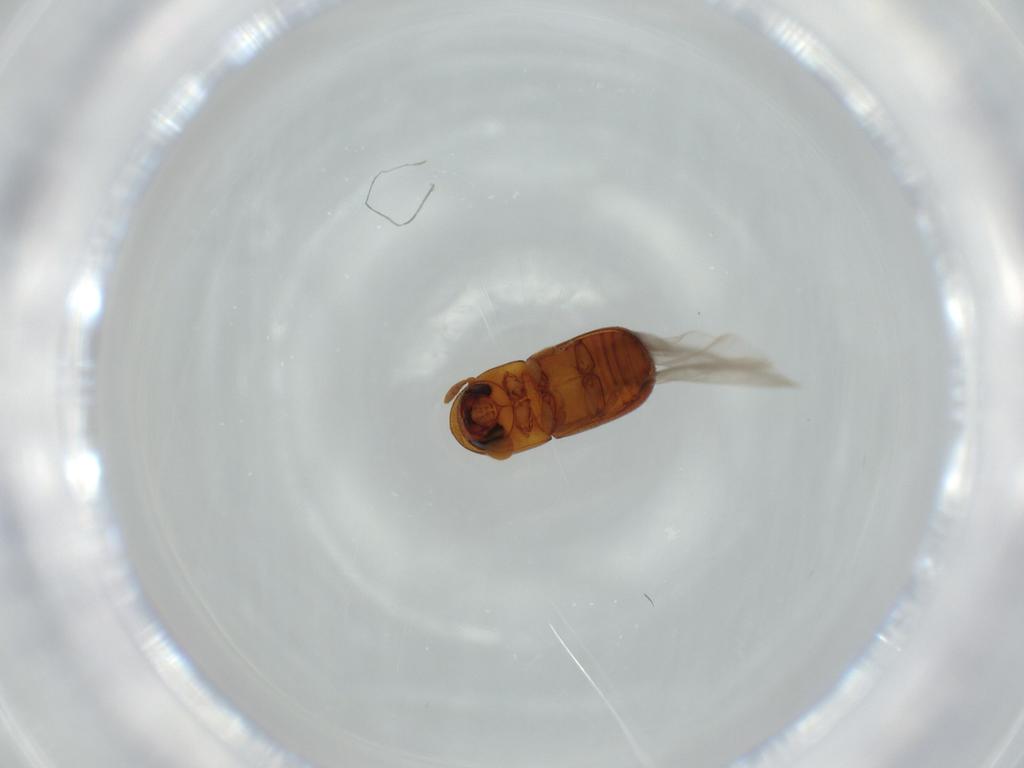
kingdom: Animalia
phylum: Arthropoda
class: Insecta
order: Coleoptera
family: Curculionidae
